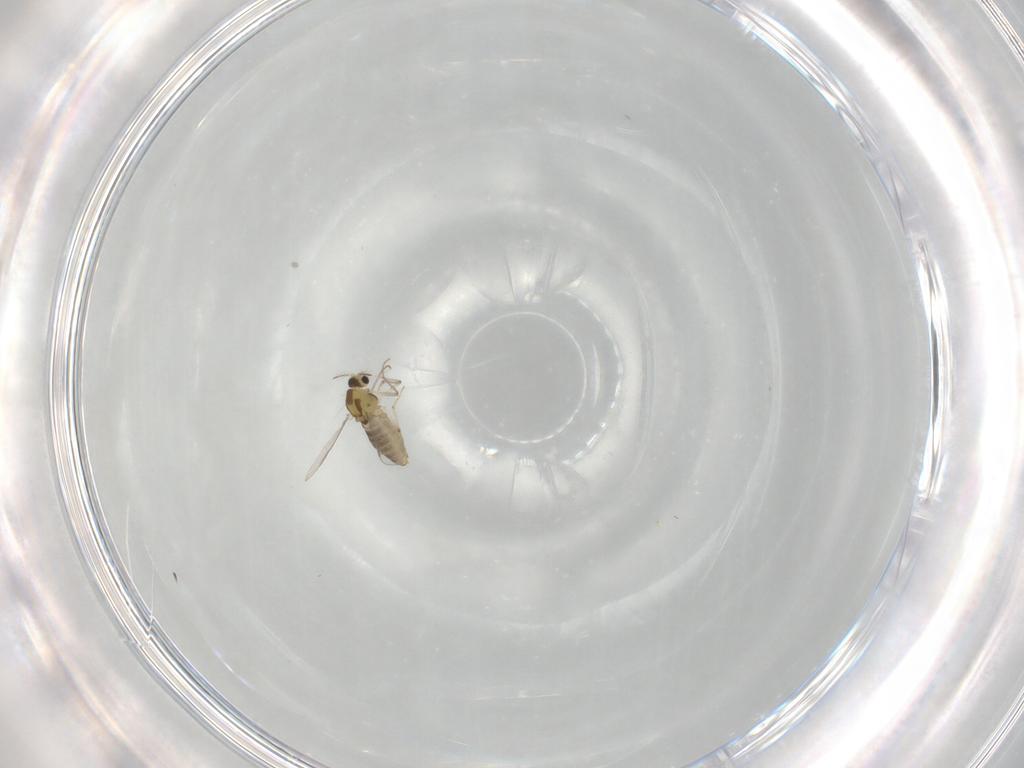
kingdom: Animalia
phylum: Arthropoda
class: Insecta
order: Diptera
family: Chironomidae
